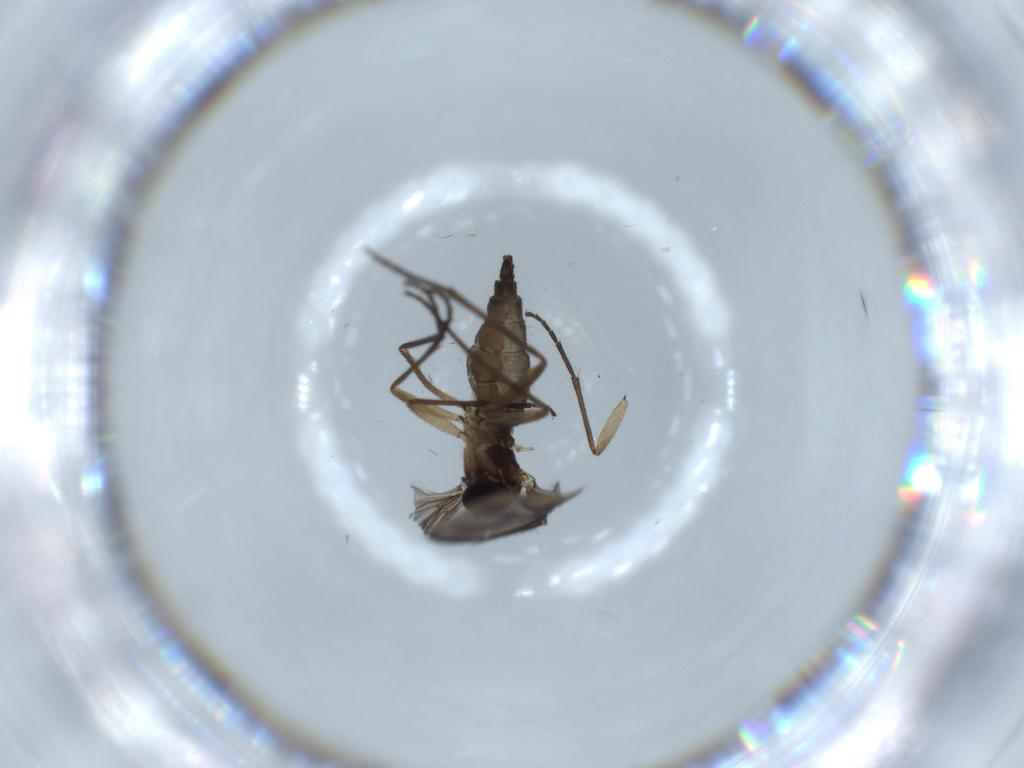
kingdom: Animalia
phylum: Arthropoda
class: Insecta
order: Diptera
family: Sciaridae
